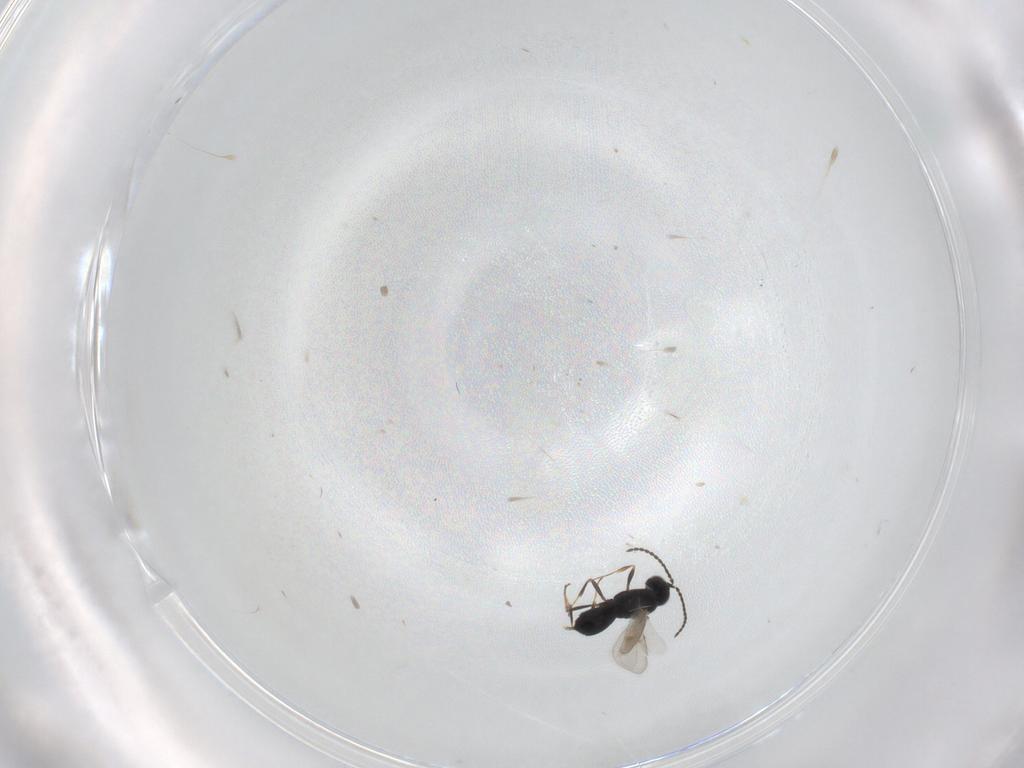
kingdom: Animalia
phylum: Arthropoda
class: Insecta
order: Hymenoptera
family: Scelionidae
